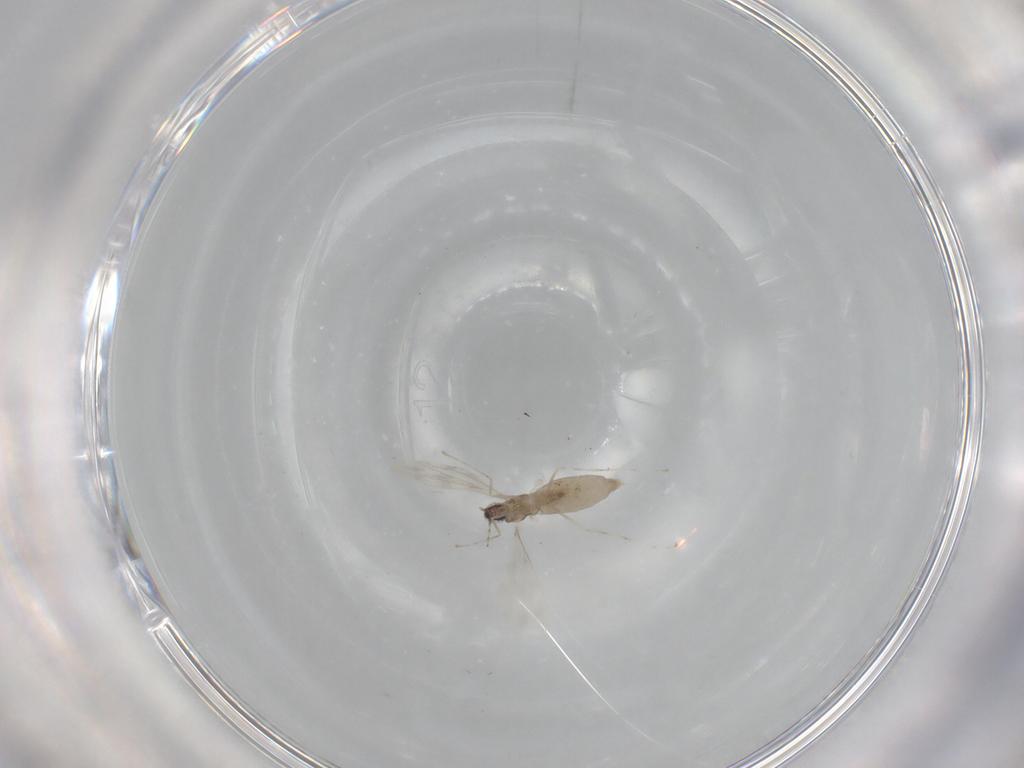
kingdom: Animalia
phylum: Arthropoda
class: Insecta
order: Diptera
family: Cecidomyiidae
